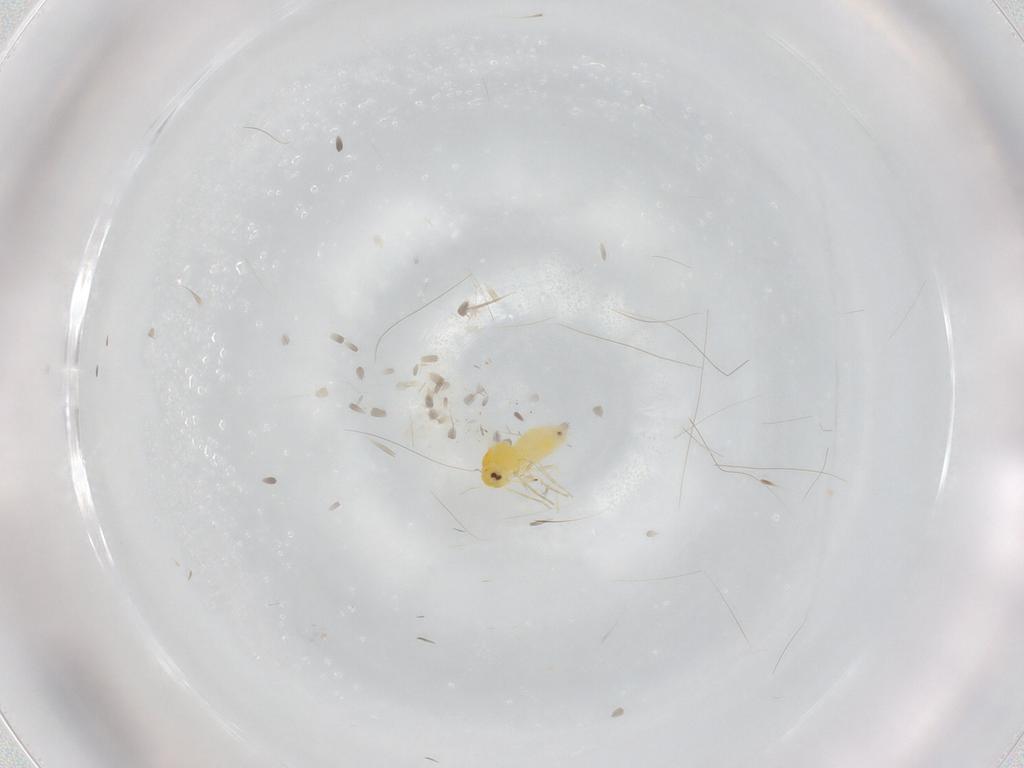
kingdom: Animalia
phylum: Arthropoda
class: Insecta
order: Hemiptera
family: Aleyrodidae
